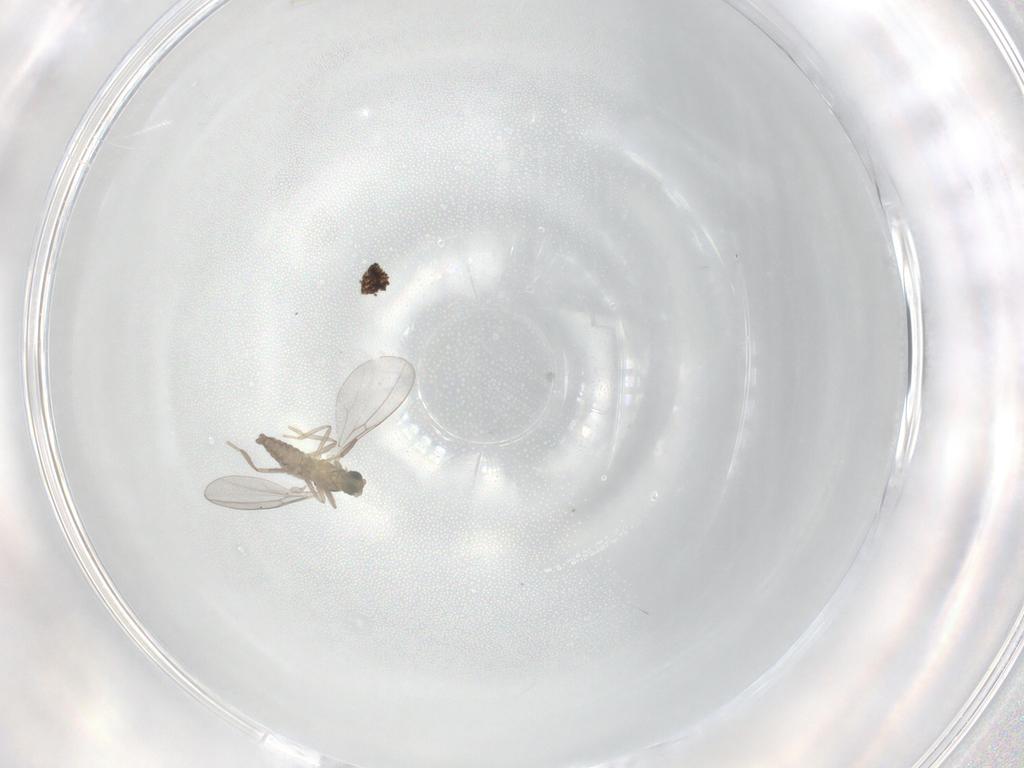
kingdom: Animalia
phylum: Arthropoda
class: Insecta
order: Diptera
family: Cecidomyiidae
